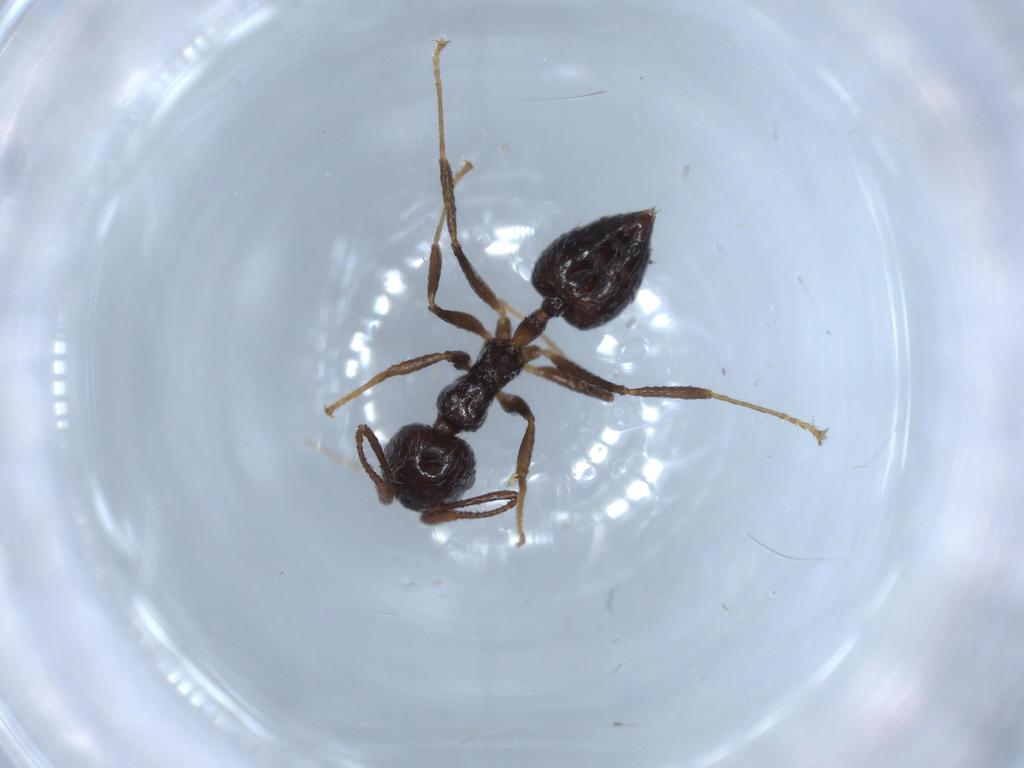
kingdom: Animalia
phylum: Arthropoda
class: Insecta
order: Hymenoptera
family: Formicidae
